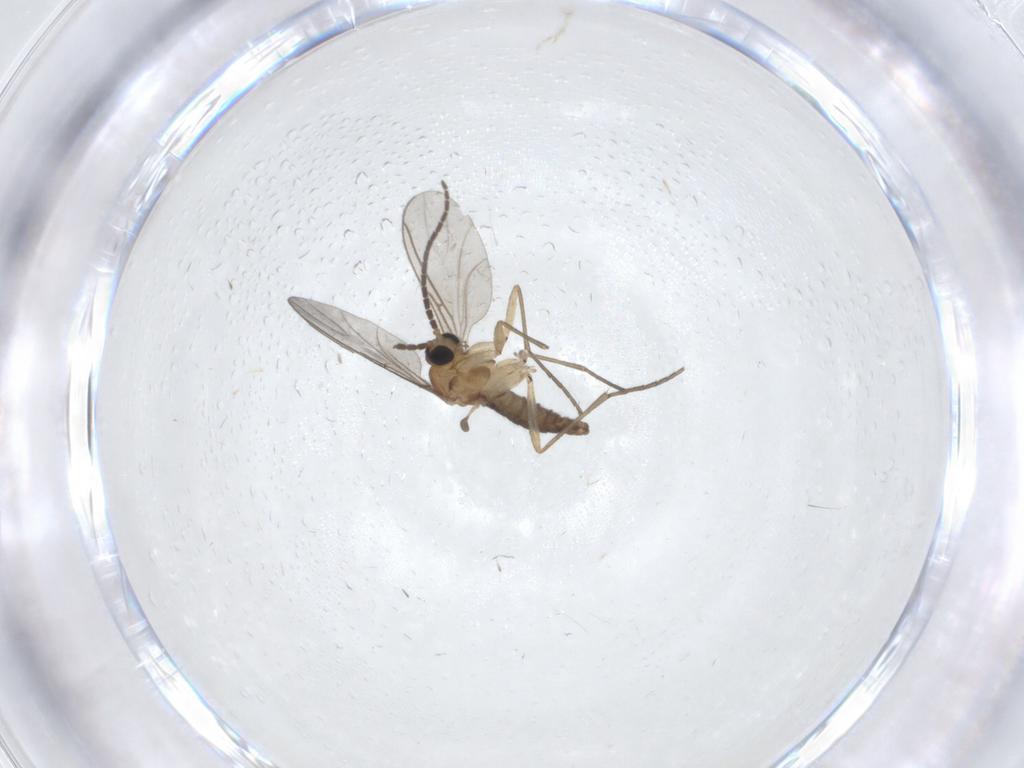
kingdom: Animalia
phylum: Arthropoda
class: Insecta
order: Diptera
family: Sciaridae
